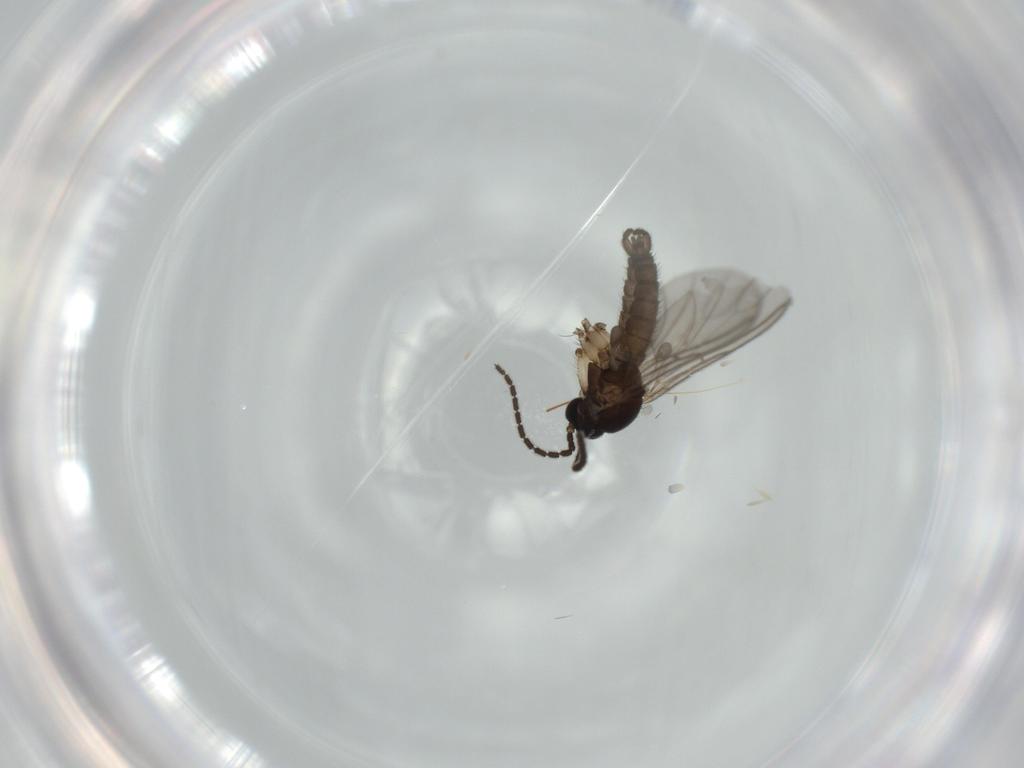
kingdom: Animalia
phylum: Arthropoda
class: Insecta
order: Diptera
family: Sciaridae
